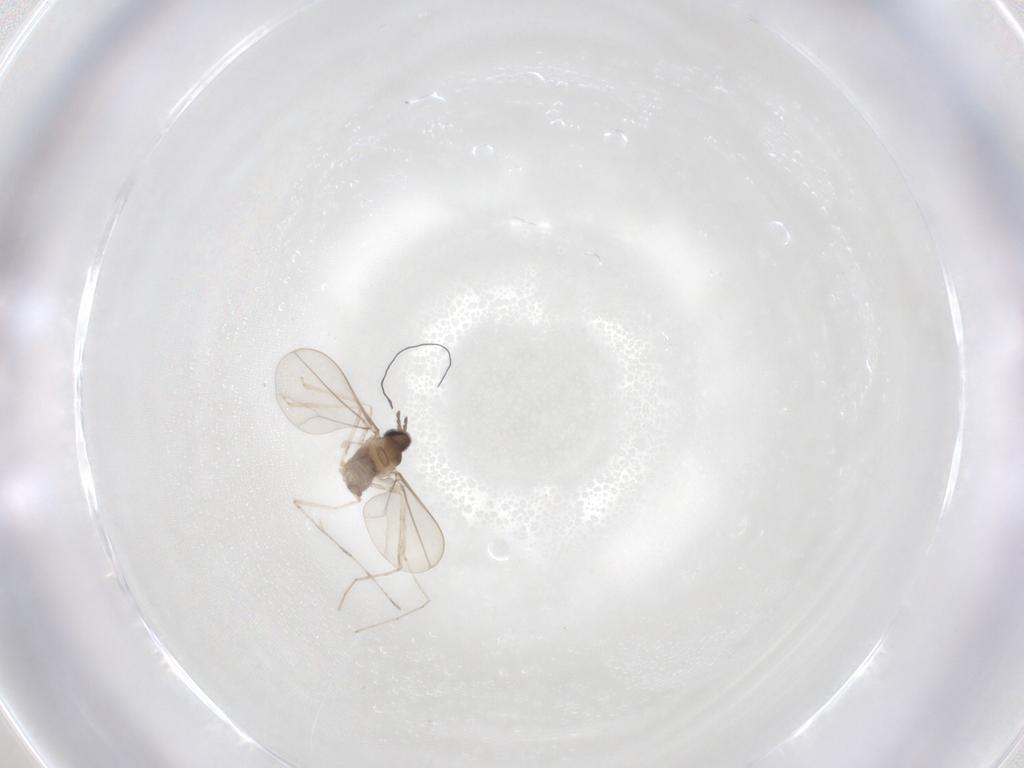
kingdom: Animalia
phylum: Arthropoda
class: Insecta
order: Diptera
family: Cecidomyiidae
